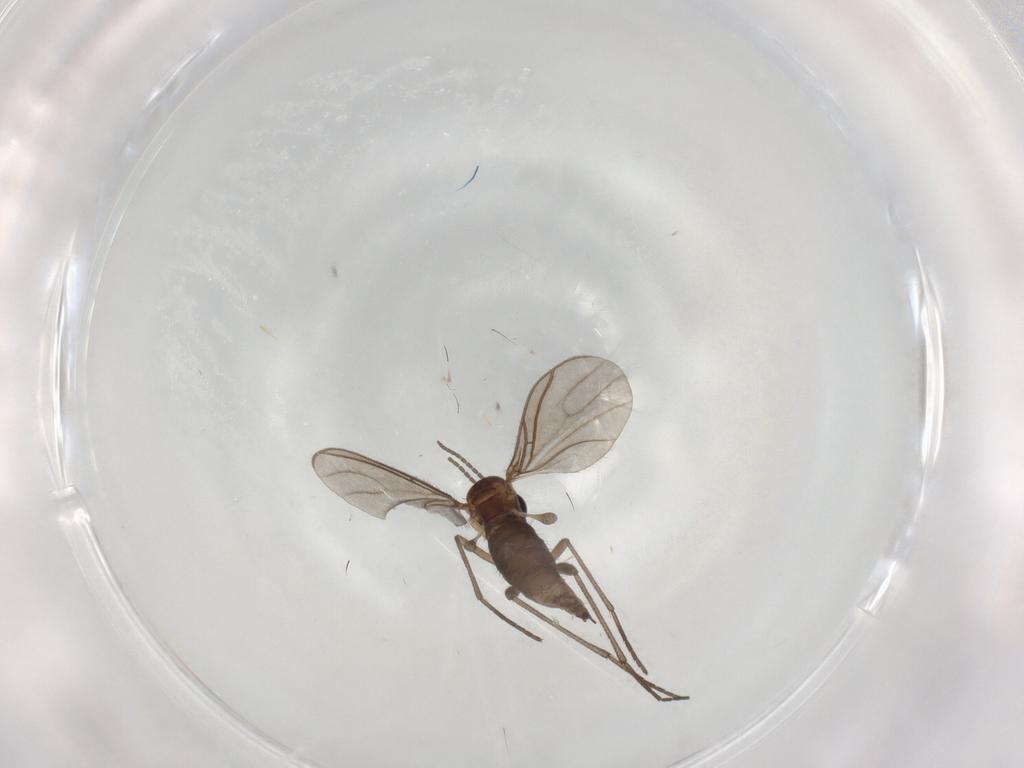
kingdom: Animalia
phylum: Arthropoda
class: Insecta
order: Diptera
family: Sciaridae
